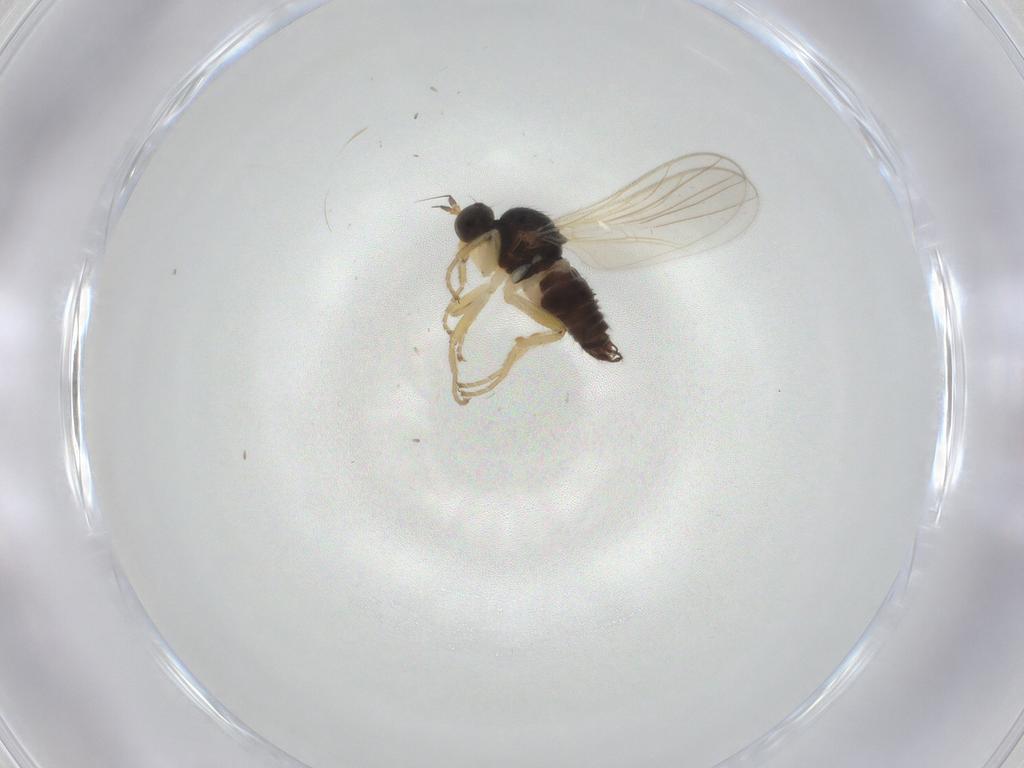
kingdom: Animalia
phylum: Arthropoda
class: Insecta
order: Diptera
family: Hybotidae
